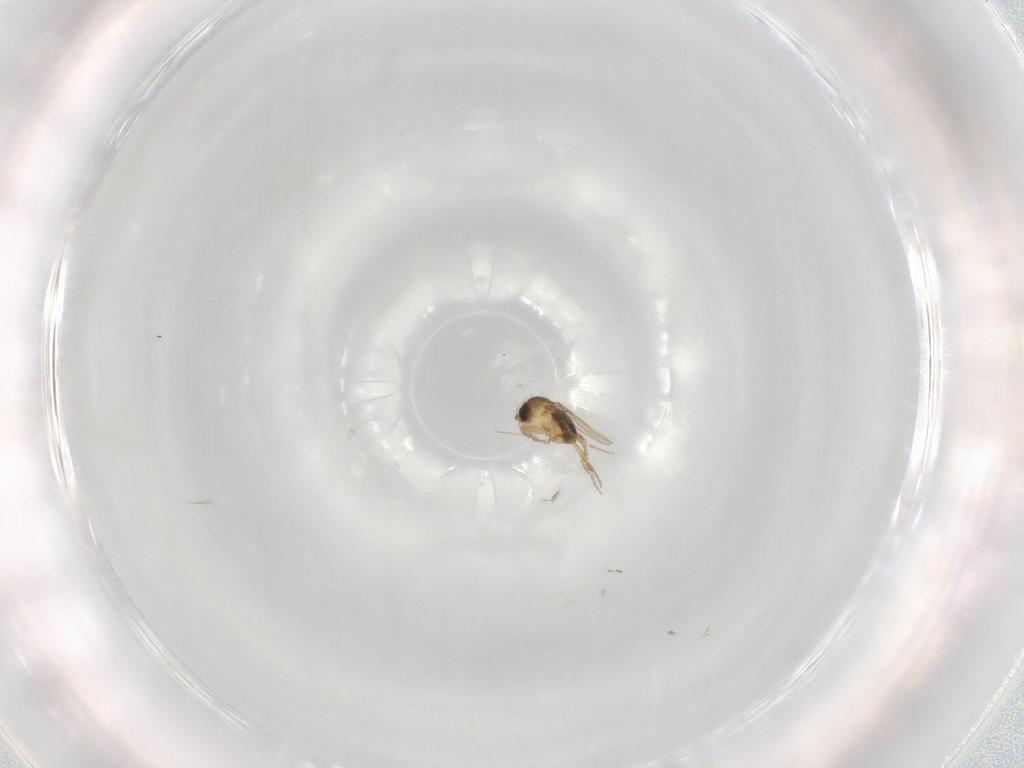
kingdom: Animalia
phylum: Arthropoda
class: Insecta
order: Diptera
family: Phoridae
